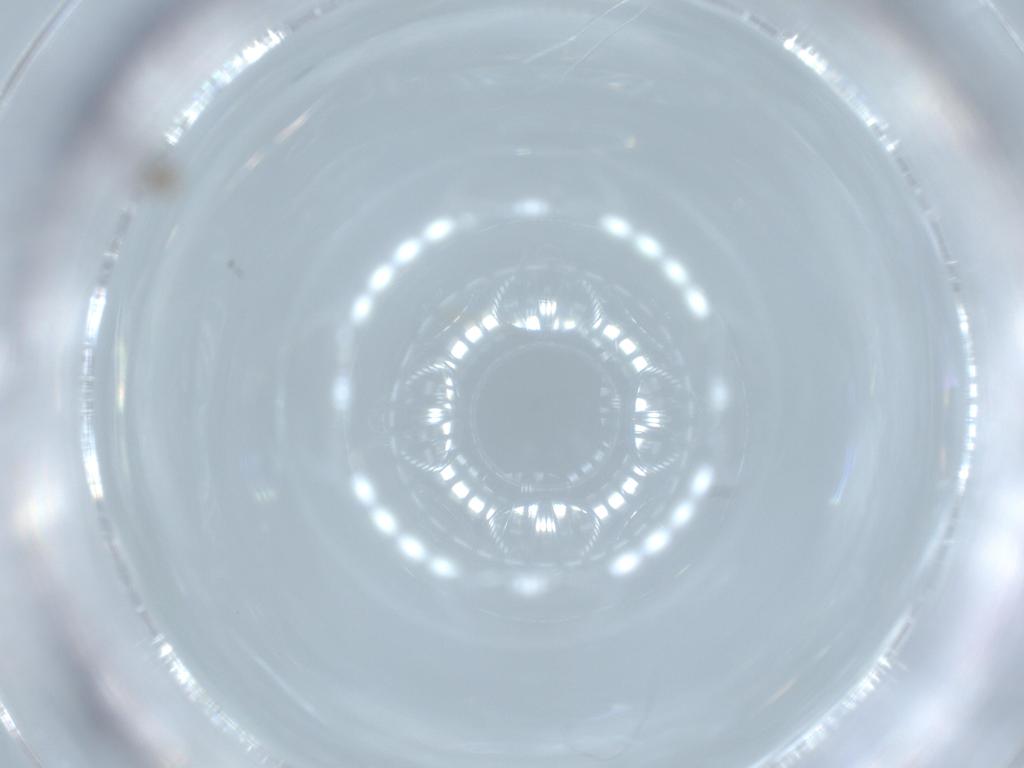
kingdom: Animalia
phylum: Arthropoda
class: Insecta
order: Diptera
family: Cecidomyiidae
